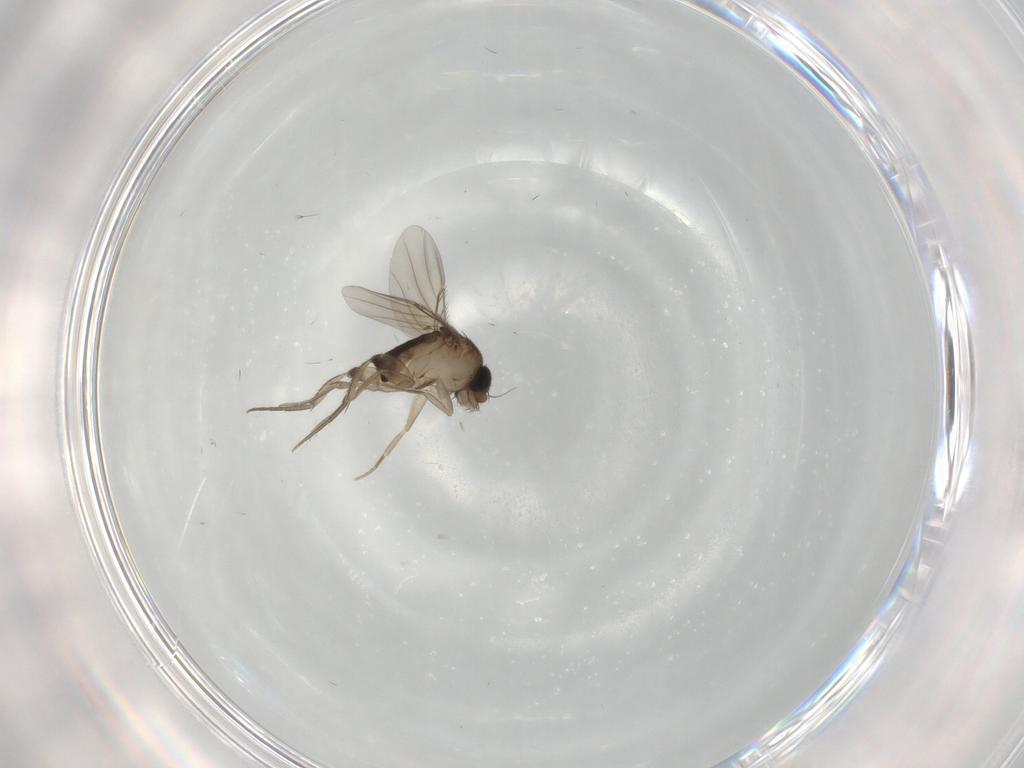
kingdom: Animalia
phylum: Arthropoda
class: Insecta
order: Diptera
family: Phoridae
